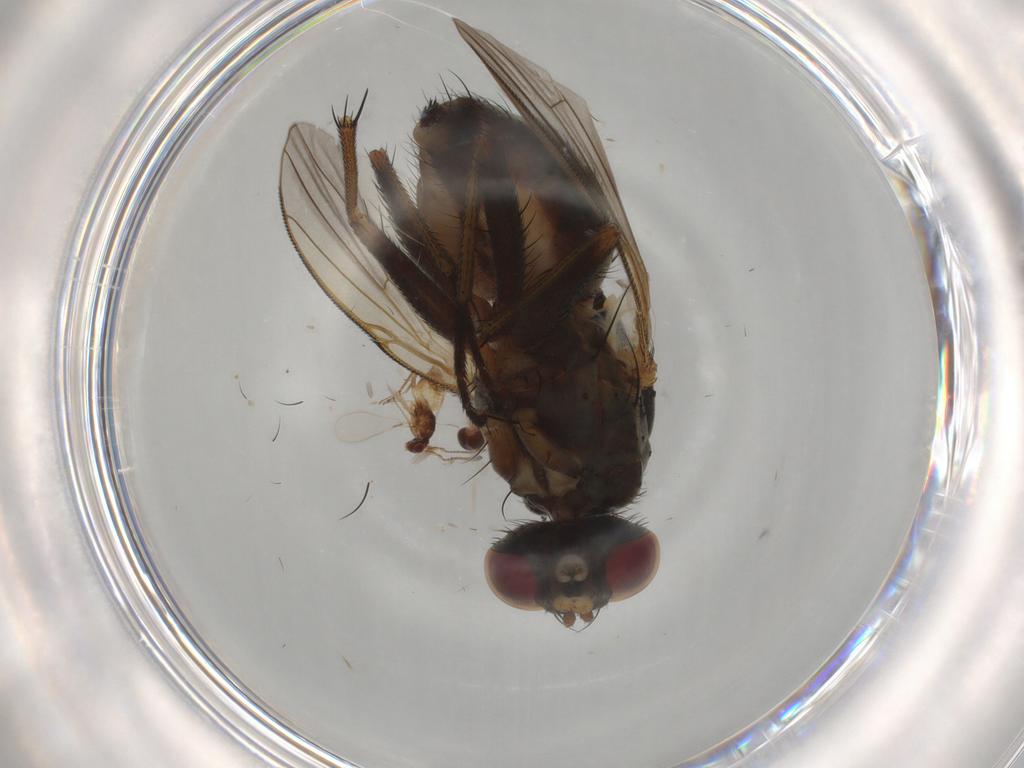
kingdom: Animalia
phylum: Arthropoda
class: Insecta
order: Diptera
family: Muscidae
